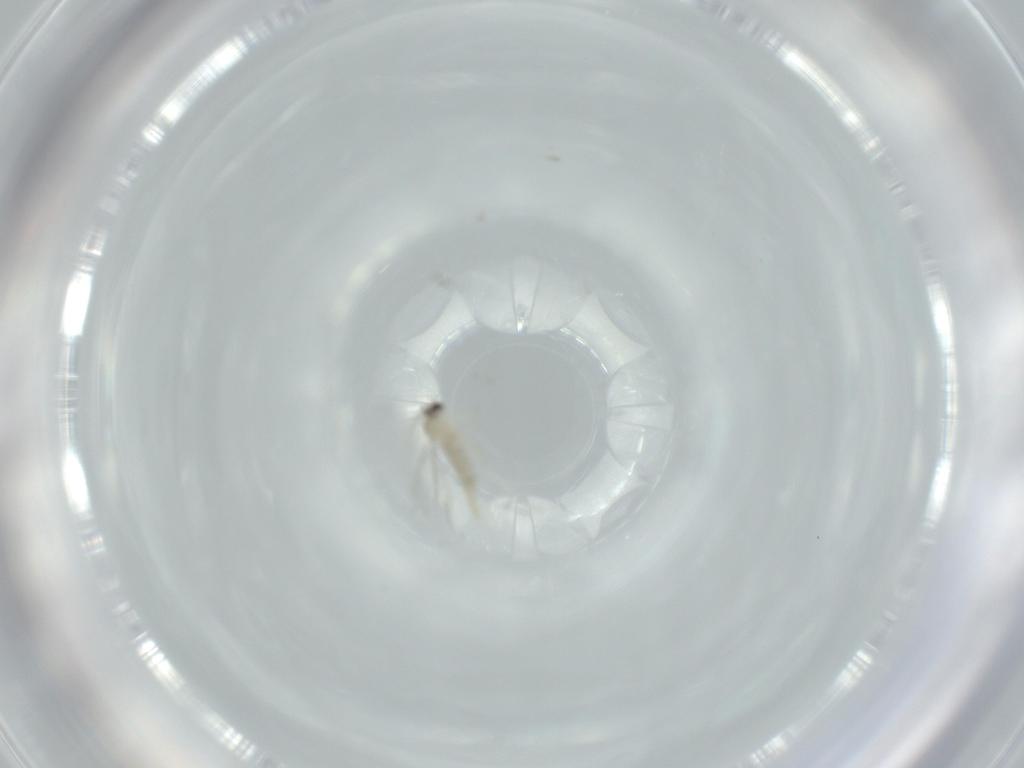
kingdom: Animalia
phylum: Arthropoda
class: Insecta
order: Diptera
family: Cecidomyiidae
